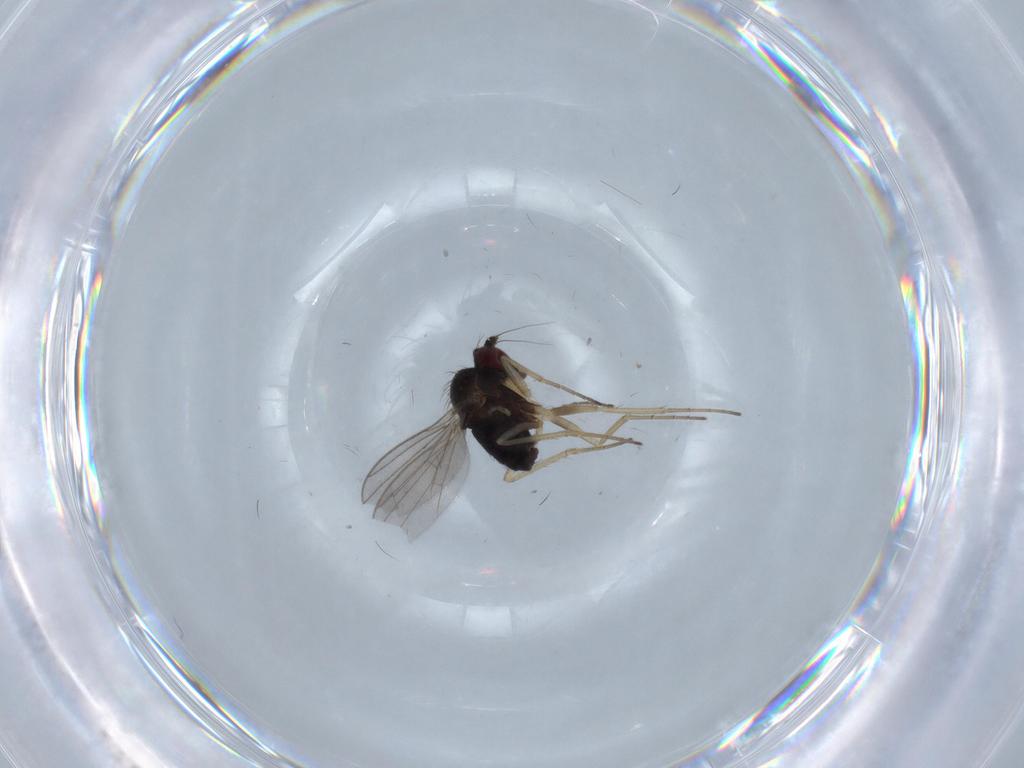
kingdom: Animalia
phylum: Arthropoda
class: Insecta
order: Diptera
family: Dolichopodidae
